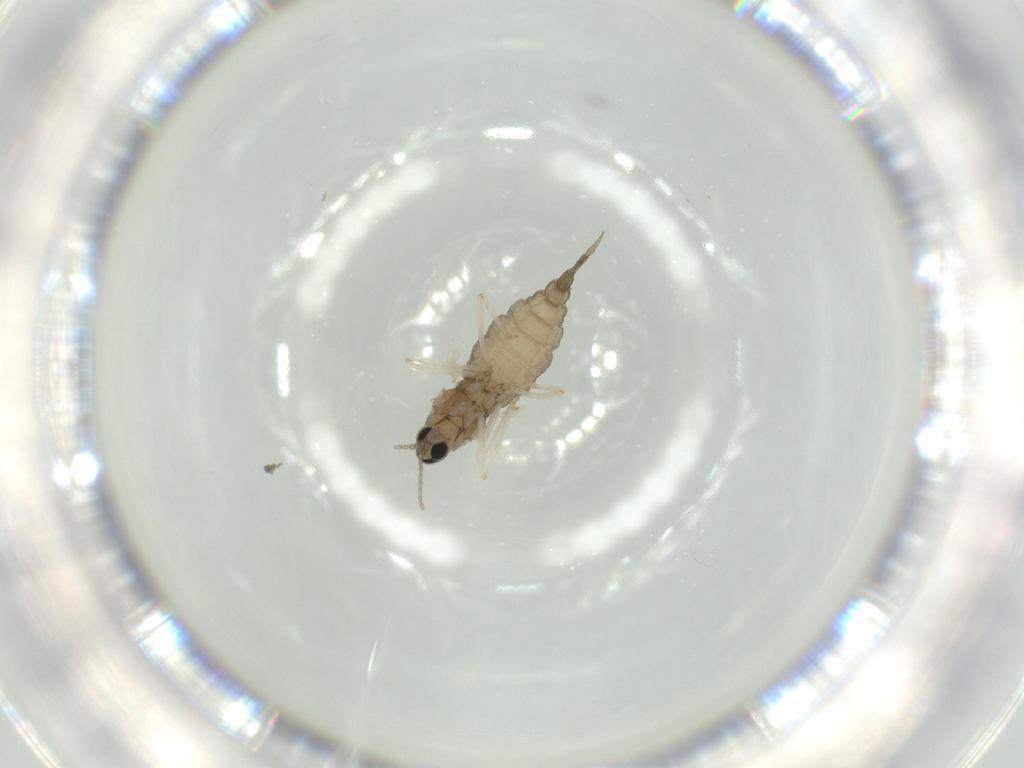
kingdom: Animalia
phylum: Arthropoda
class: Insecta
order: Diptera
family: Cecidomyiidae
